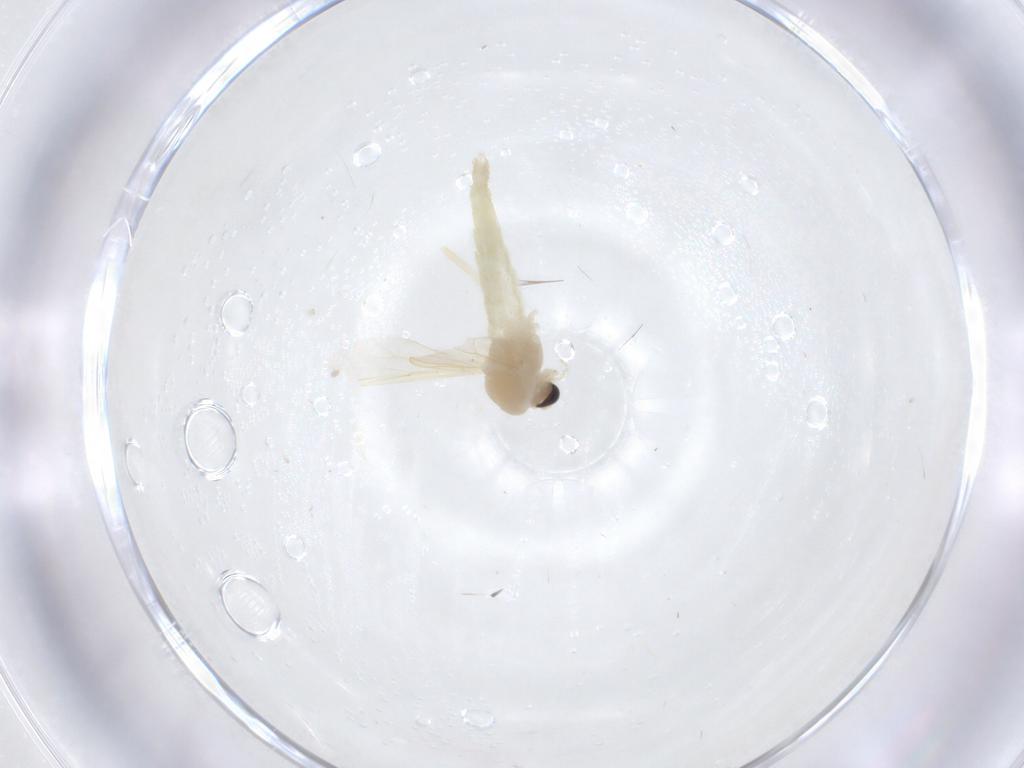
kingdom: Animalia
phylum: Arthropoda
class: Insecta
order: Diptera
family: Chironomidae
